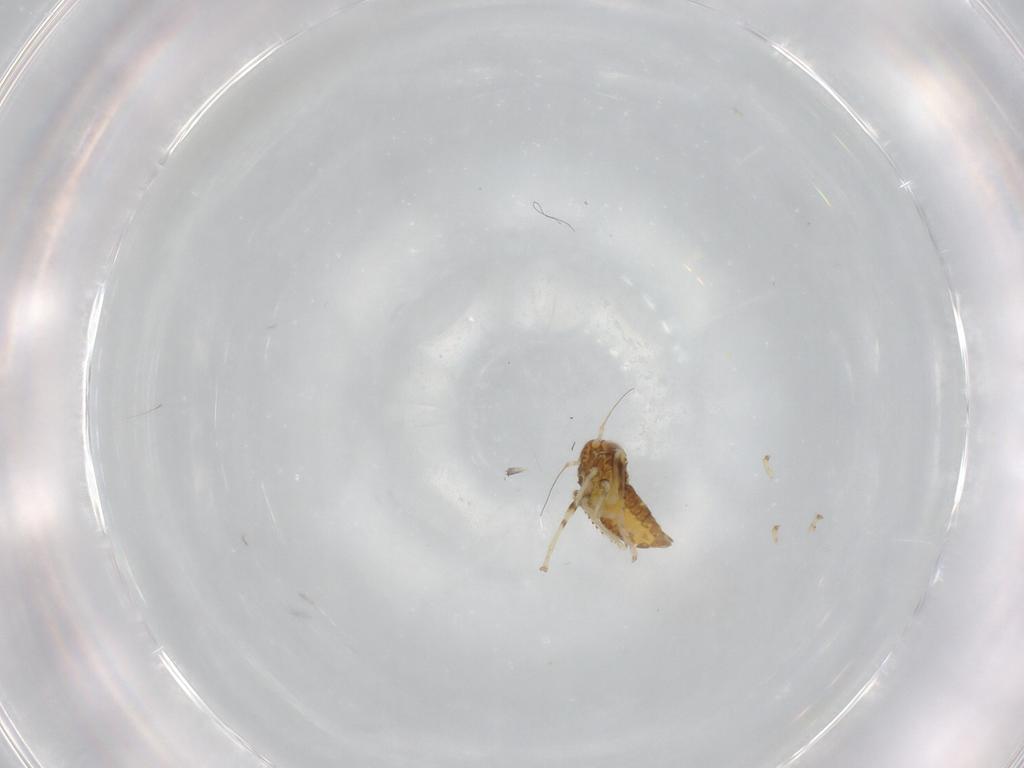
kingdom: Animalia
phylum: Arthropoda
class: Insecta
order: Hemiptera
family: Cicadellidae
